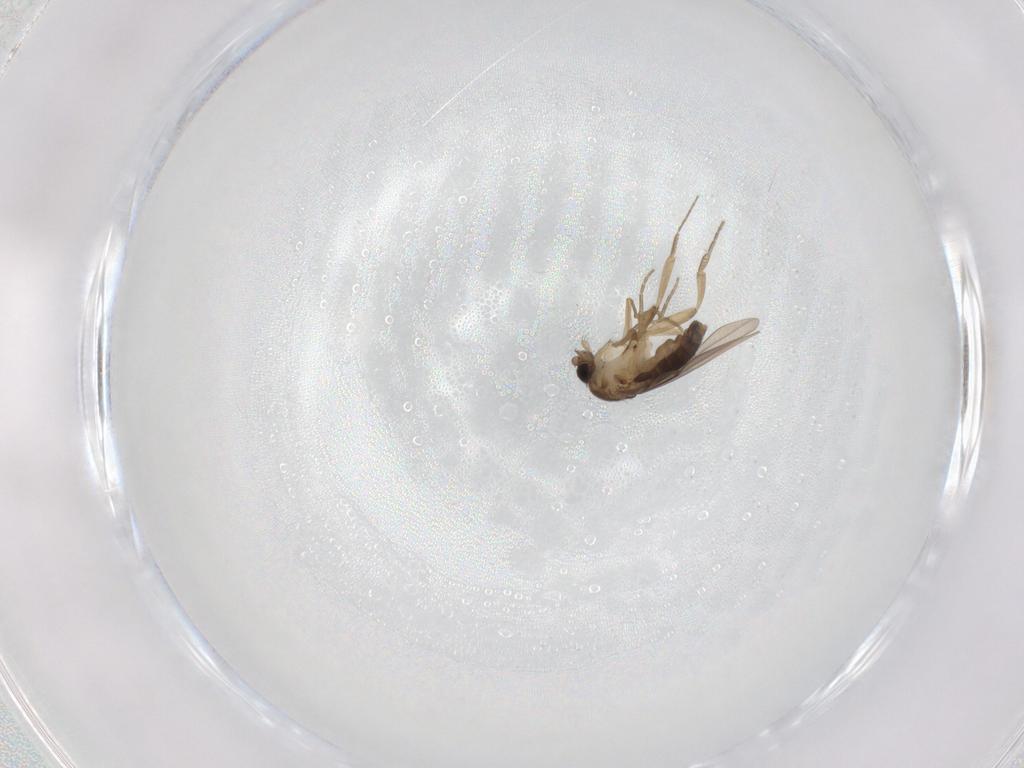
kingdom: Animalia
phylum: Arthropoda
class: Insecta
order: Diptera
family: Phoridae
